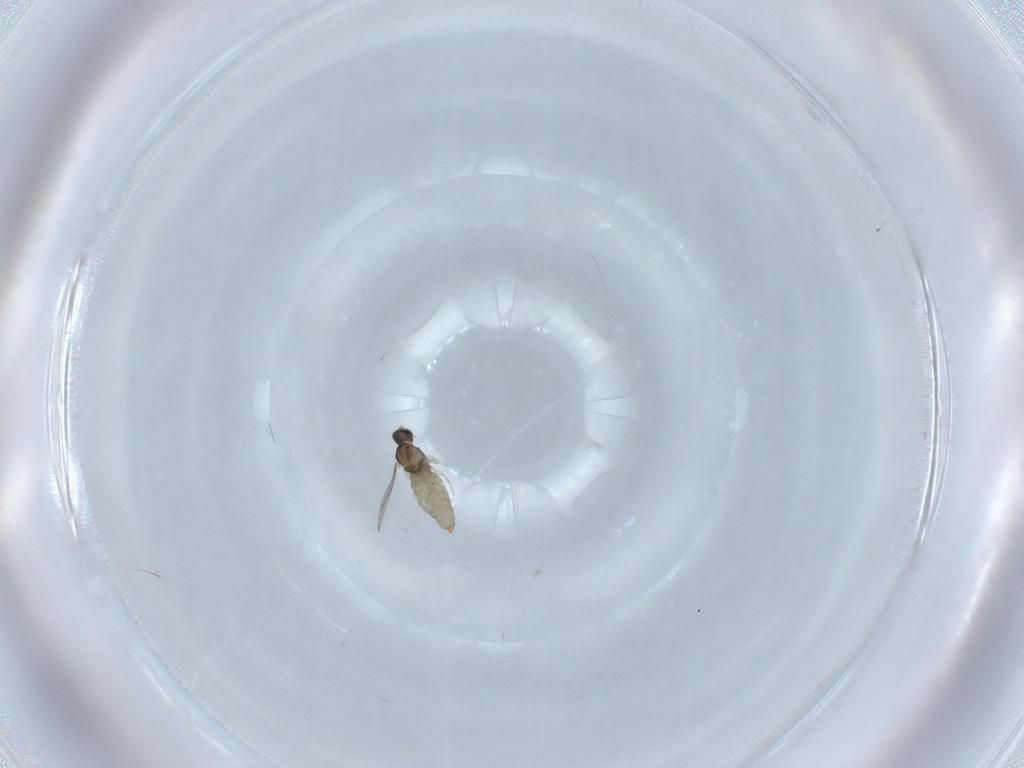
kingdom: Animalia
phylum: Arthropoda
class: Insecta
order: Diptera
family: Cecidomyiidae
